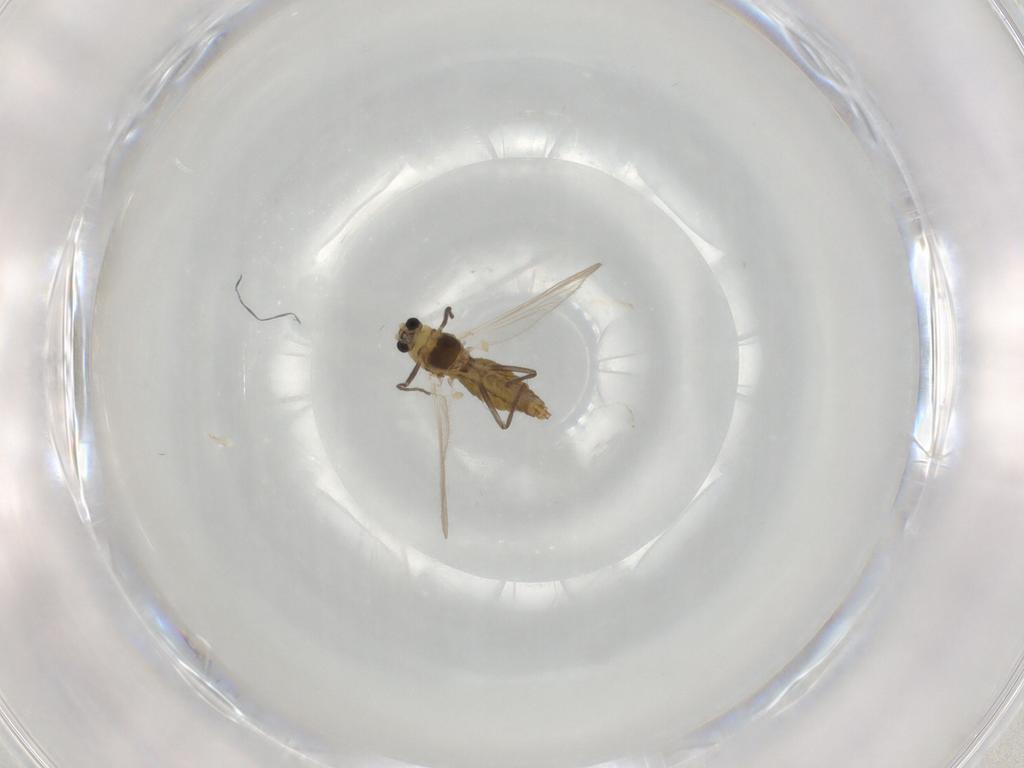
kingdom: Animalia
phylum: Arthropoda
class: Insecta
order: Diptera
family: Chironomidae
